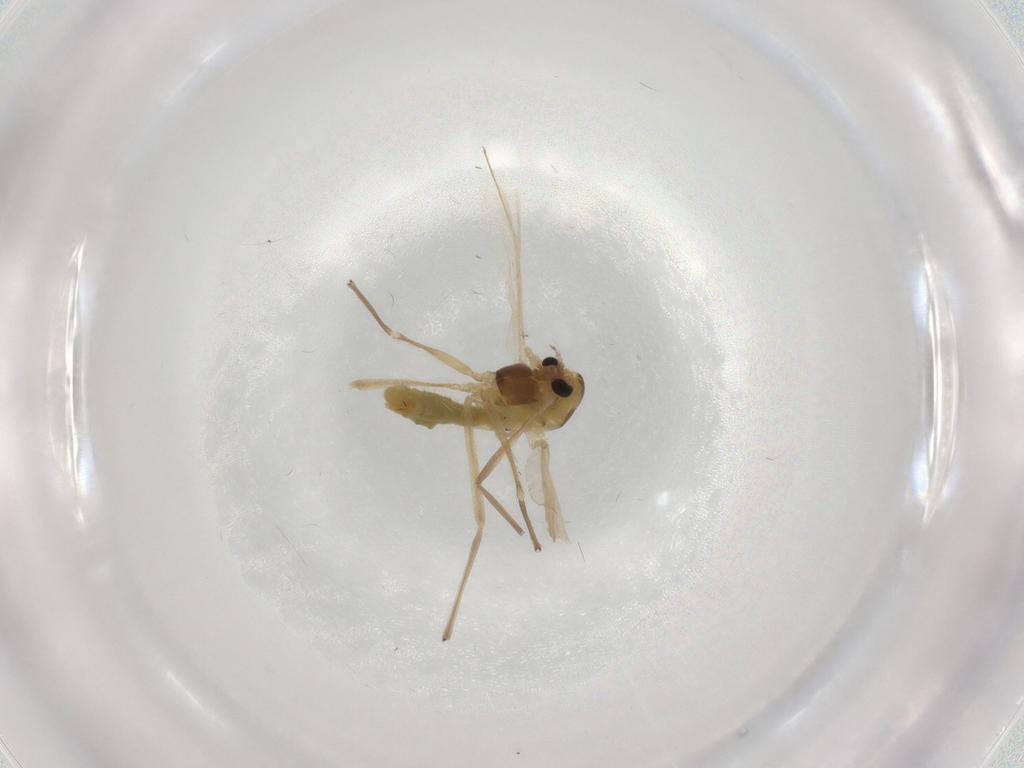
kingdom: Animalia
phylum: Arthropoda
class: Insecta
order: Diptera
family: Chironomidae
